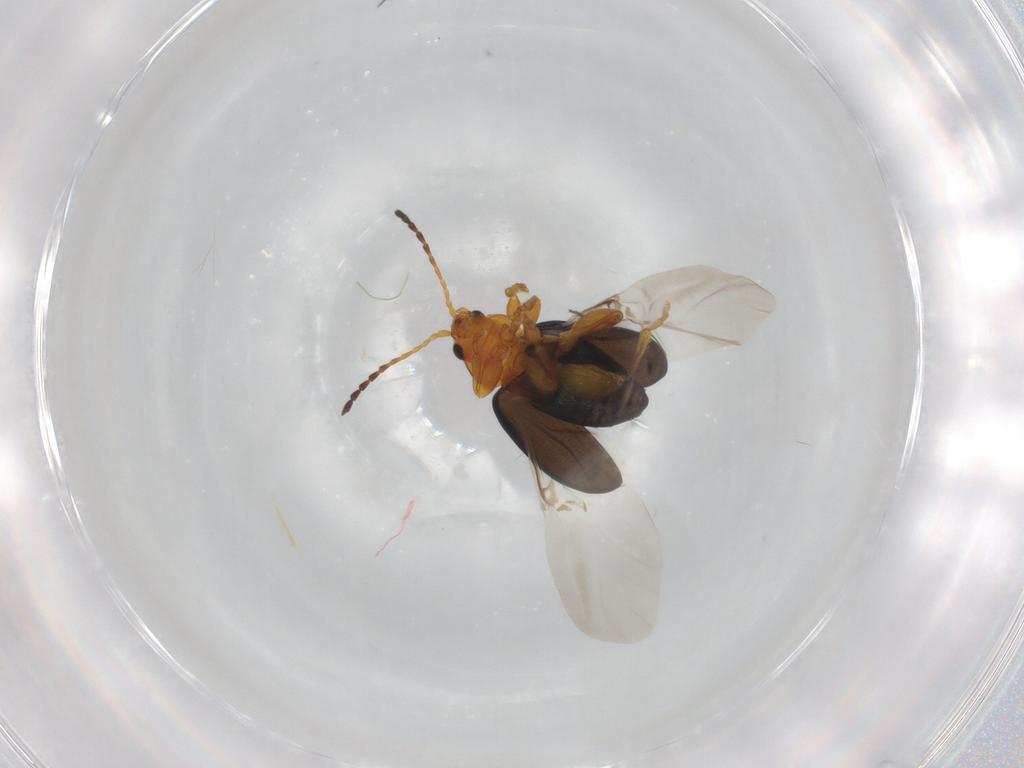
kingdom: Animalia
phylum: Arthropoda
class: Insecta
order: Coleoptera
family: Chrysomelidae
